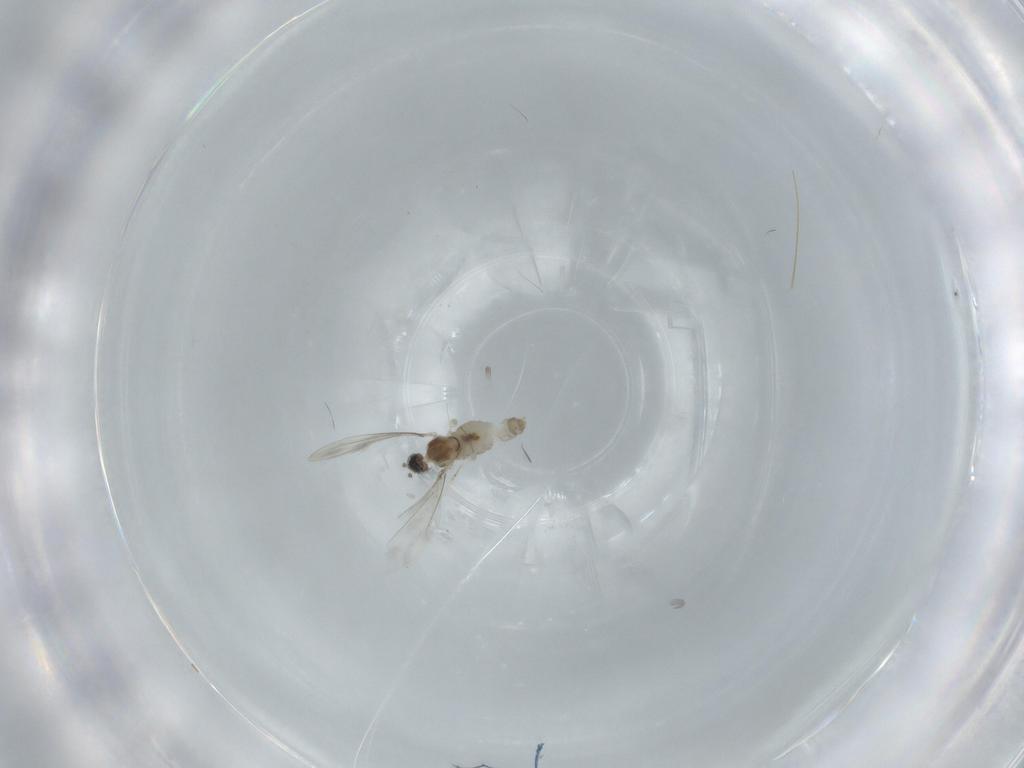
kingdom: Animalia
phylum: Arthropoda
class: Insecta
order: Diptera
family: Cecidomyiidae
